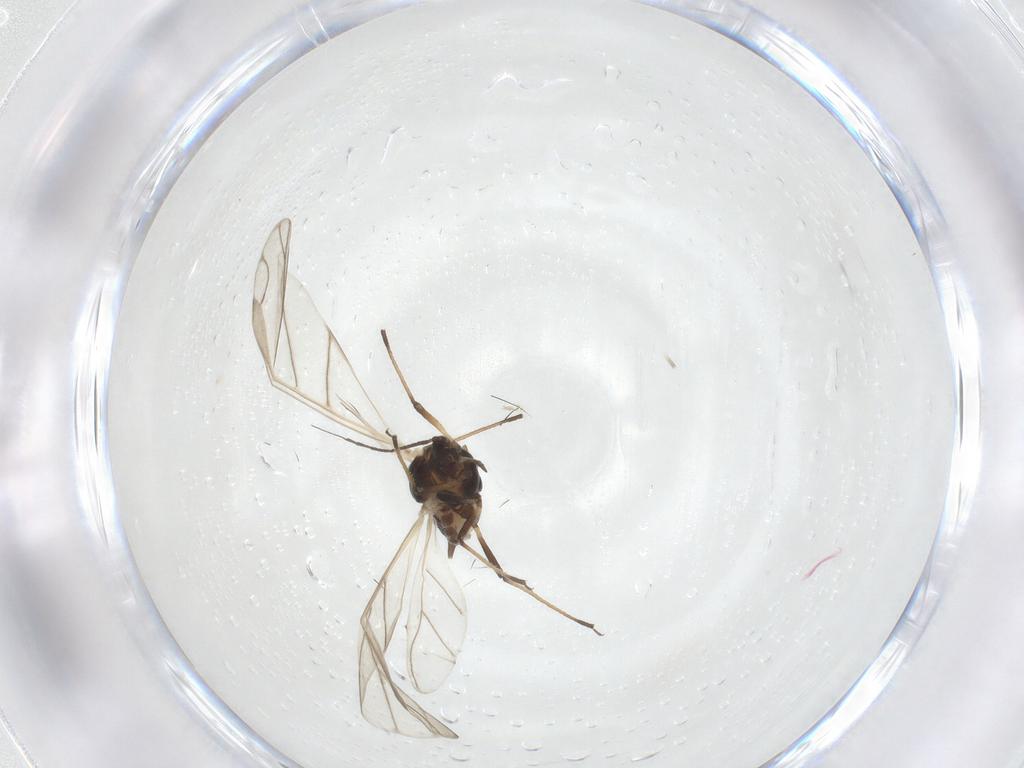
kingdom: Animalia
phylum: Arthropoda
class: Insecta
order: Hemiptera
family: Aphididae
